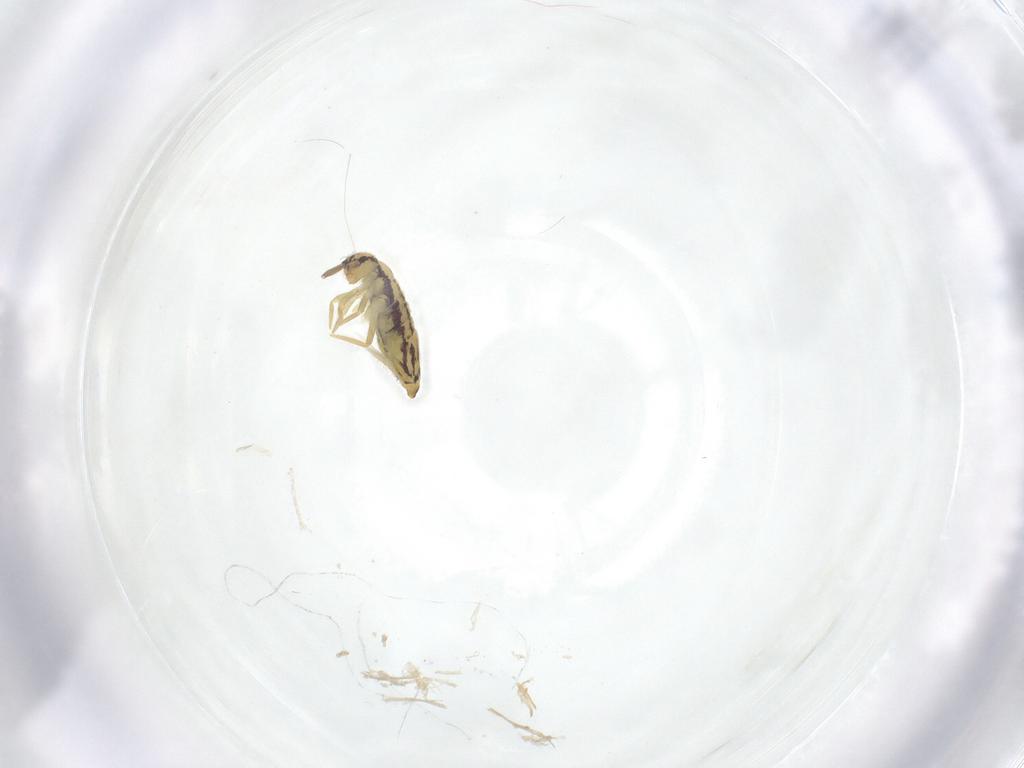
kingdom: Animalia
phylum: Arthropoda
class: Collembola
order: Entomobryomorpha
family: Entomobryidae
